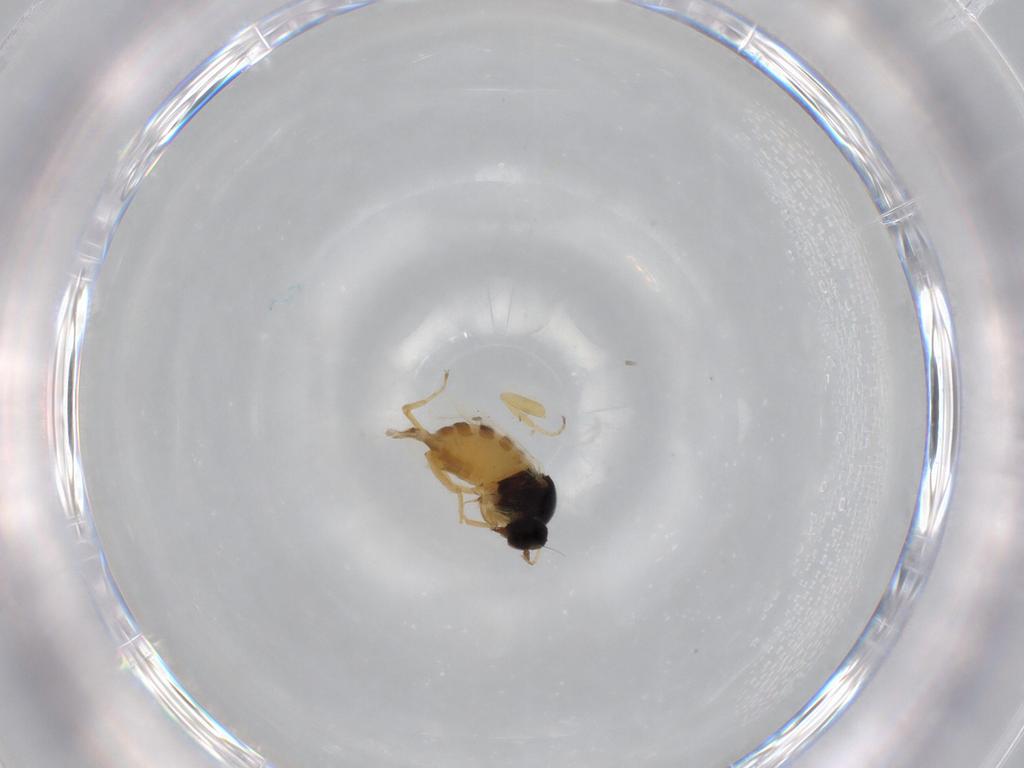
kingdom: Animalia
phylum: Arthropoda
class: Insecta
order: Diptera
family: Hybotidae
